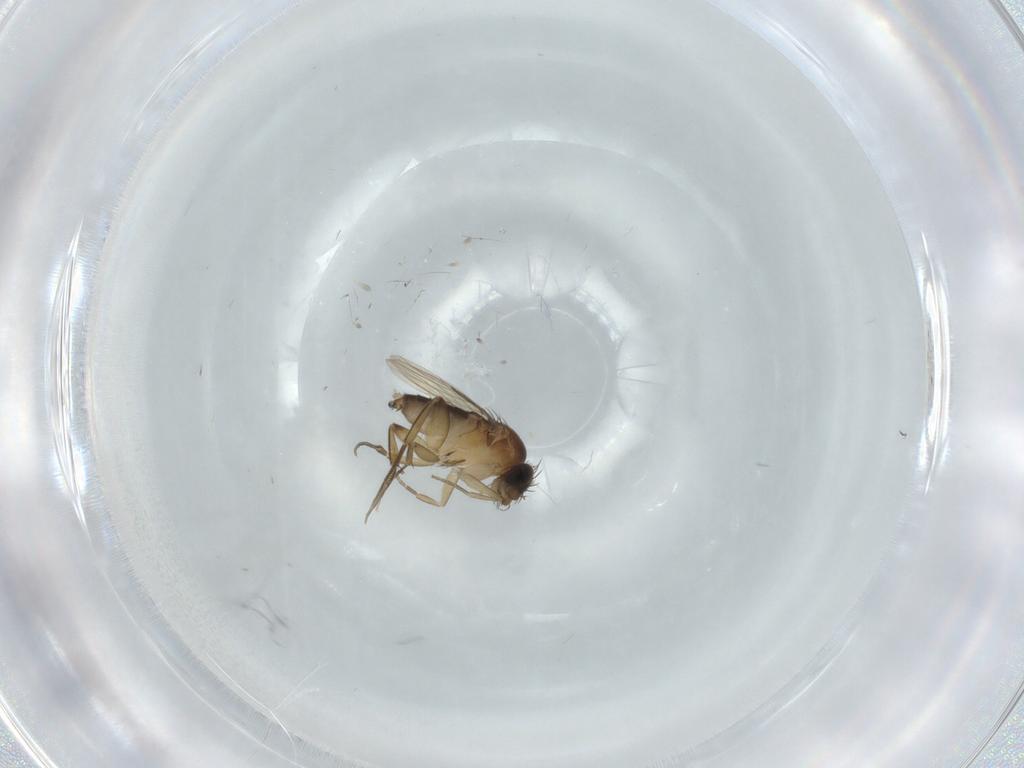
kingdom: Animalia
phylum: Arthropoda
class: Insecta
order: Diptera
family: Phoridae
